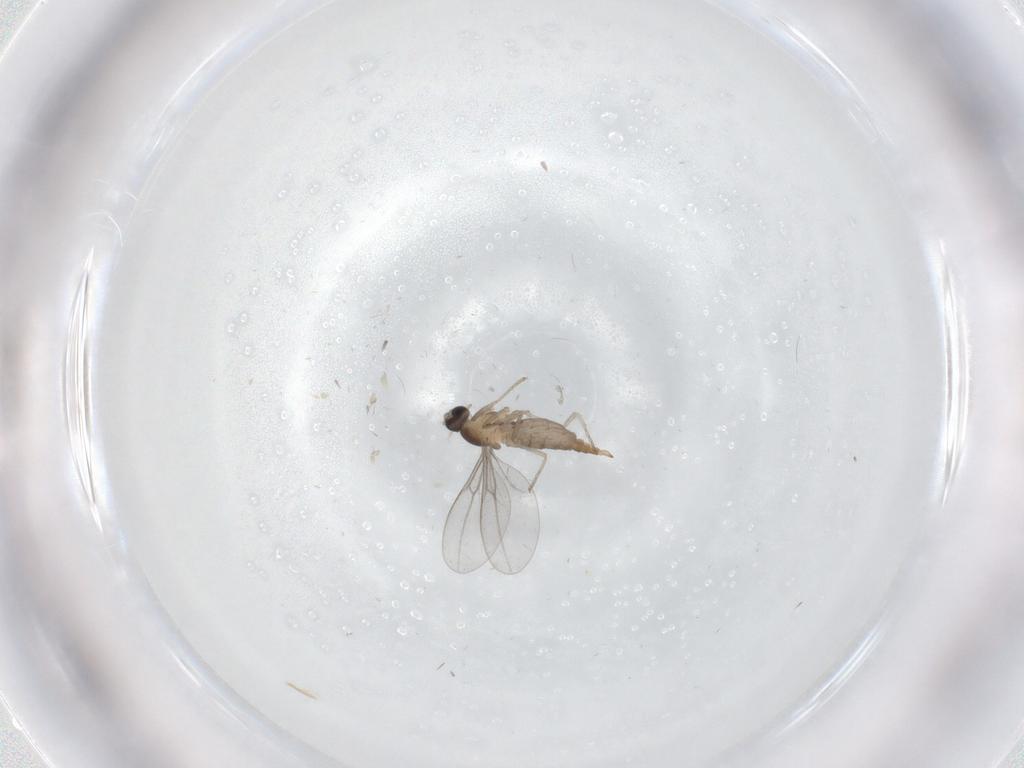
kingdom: Animalia
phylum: Arthropoda
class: Insecta
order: Diptera
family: Cecidomyiidae
